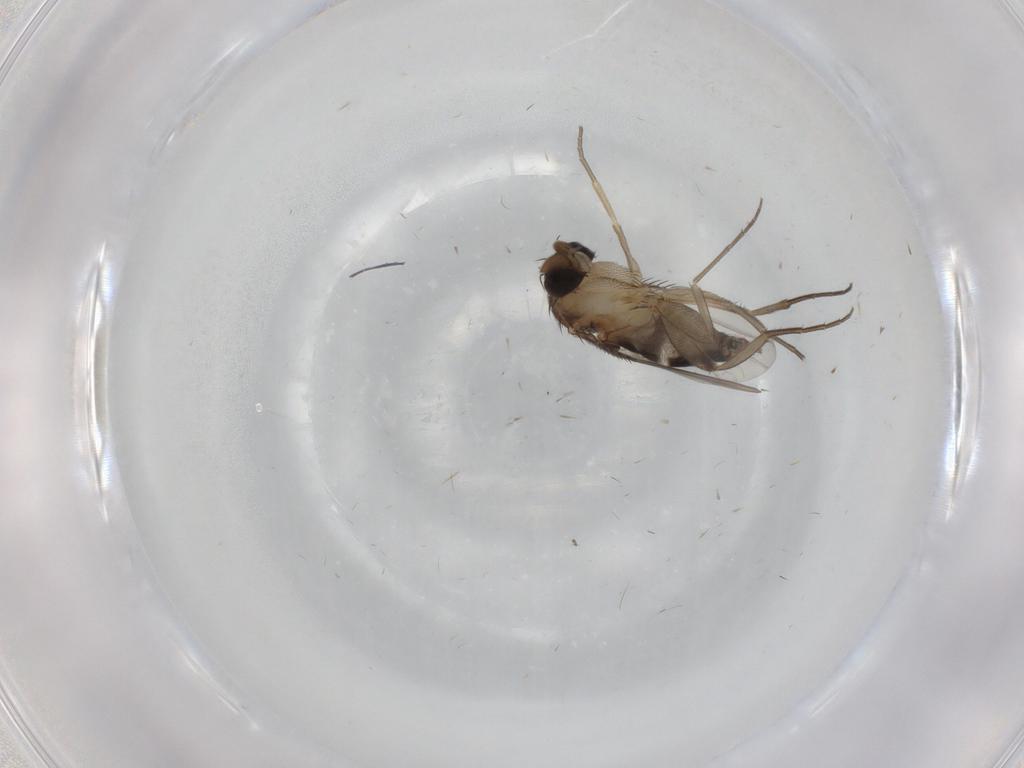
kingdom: Animalia
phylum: Arthropoda
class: Insecta
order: Diptera
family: Phoridae
